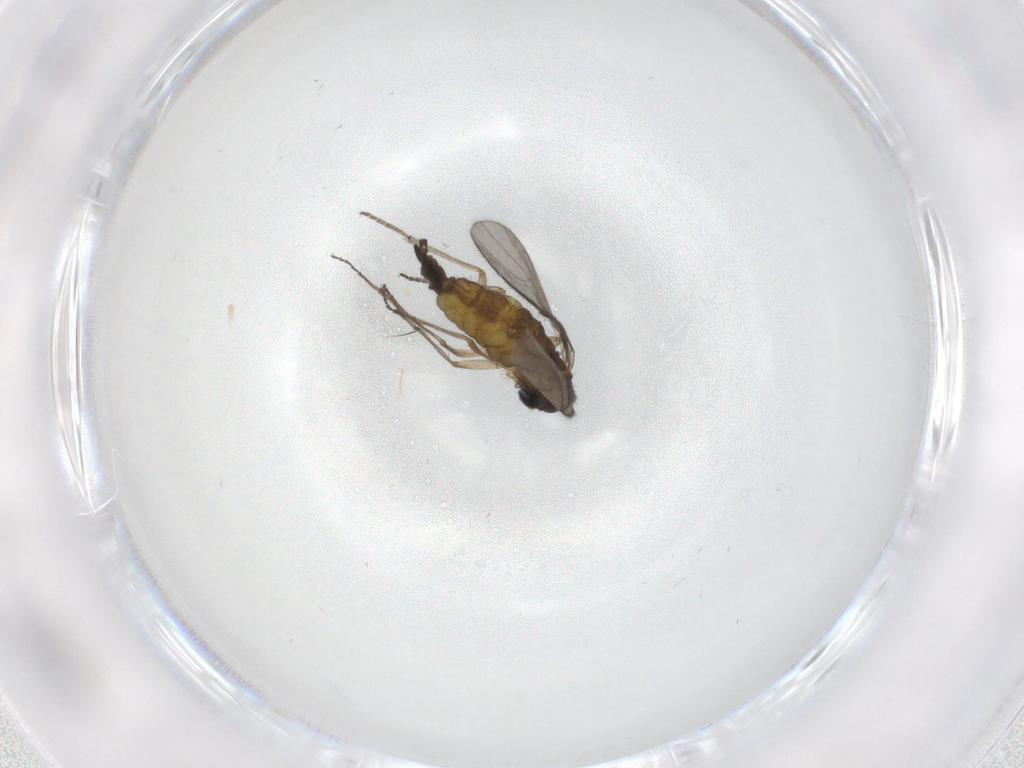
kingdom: Animalia
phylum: Arthropoda
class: Insecta
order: Diptera
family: Sciaridae
